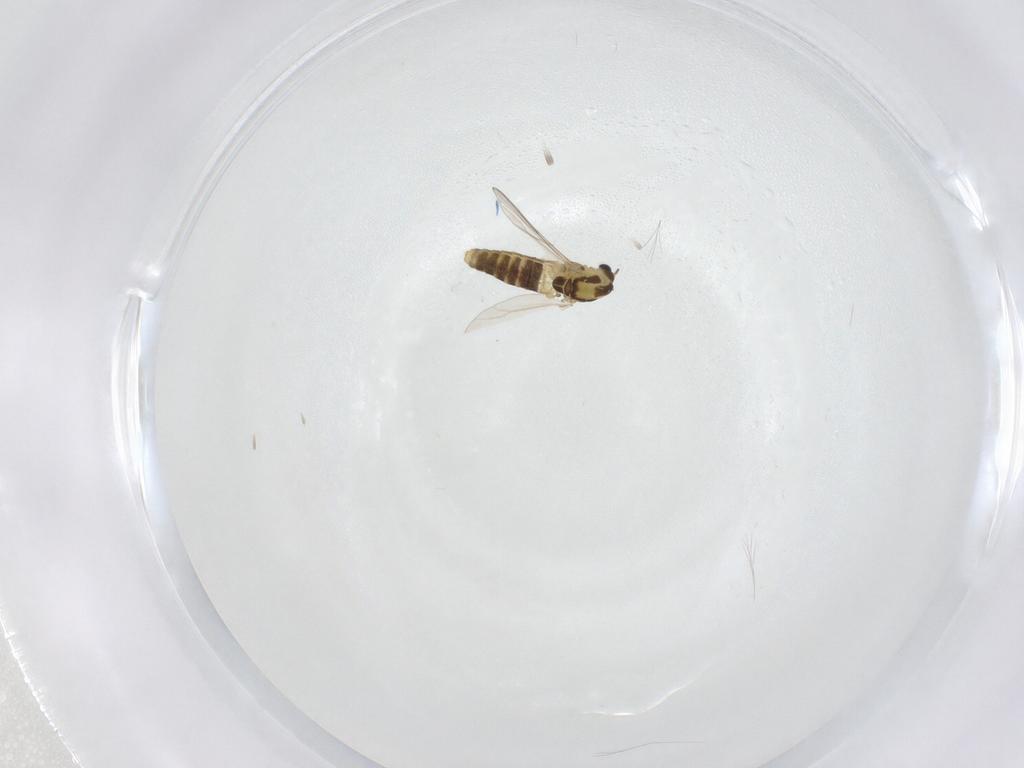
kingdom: Animalia
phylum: Arthropoda
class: Insecta
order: Diptera
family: Chironomidae
